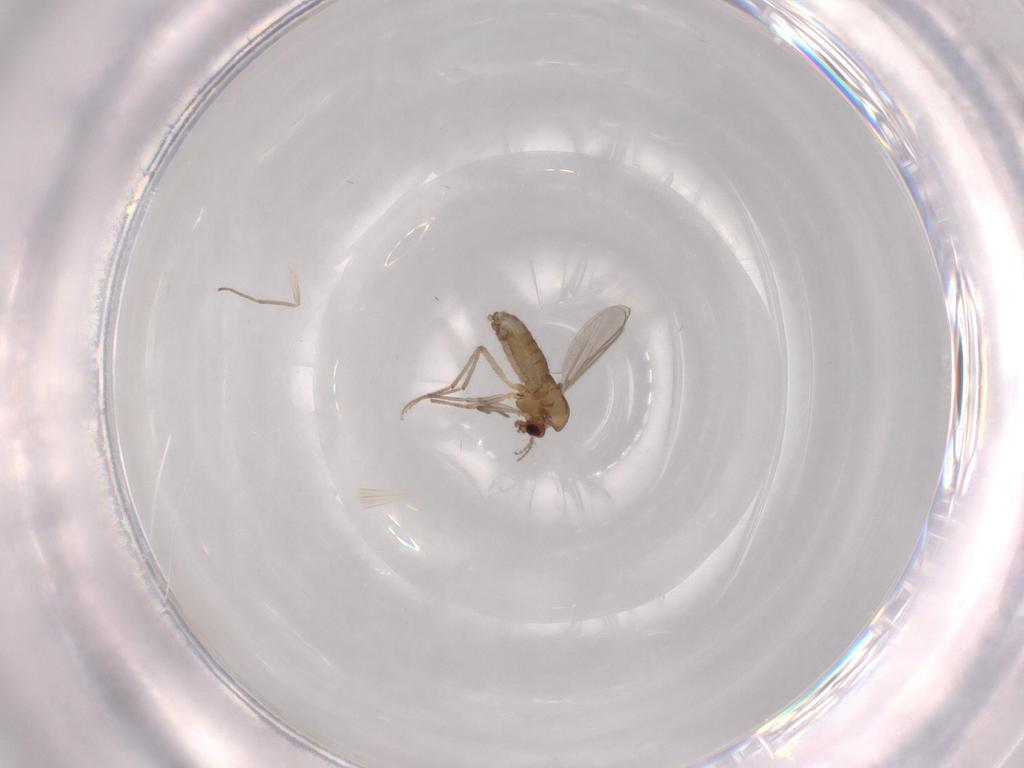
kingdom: Animalia
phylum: Arthropoda
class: Insecta
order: Diptera
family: Chironomidae
